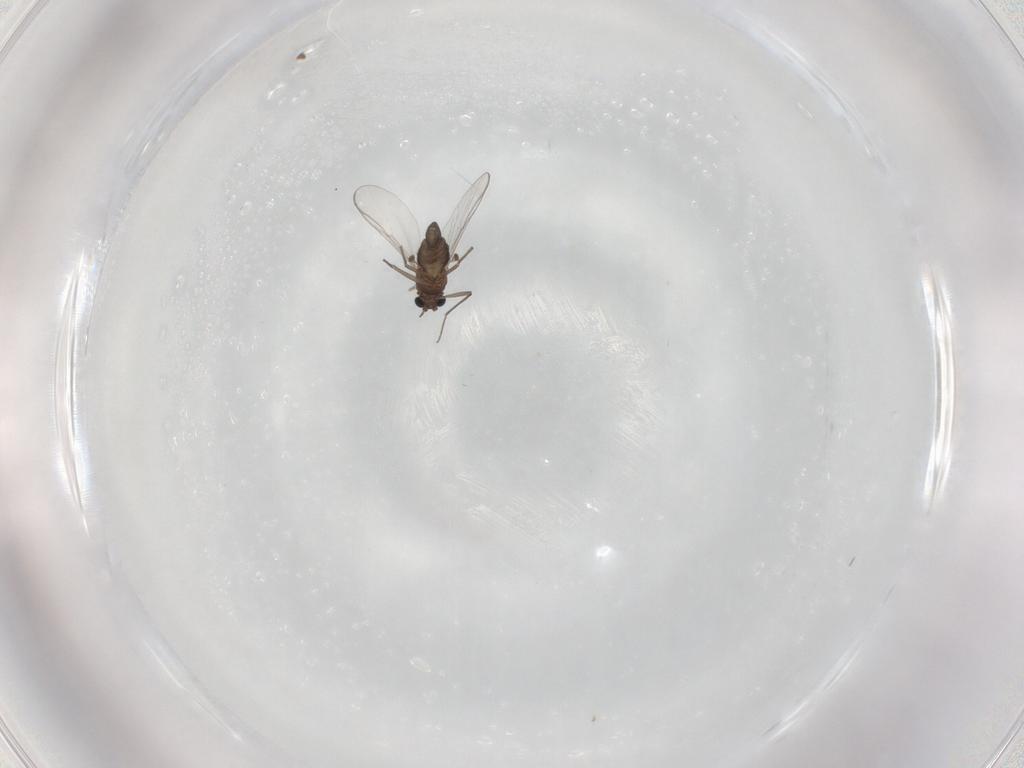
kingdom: Animalia
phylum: Arthropoda
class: Insecta
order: Diptera
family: Chironomidae
